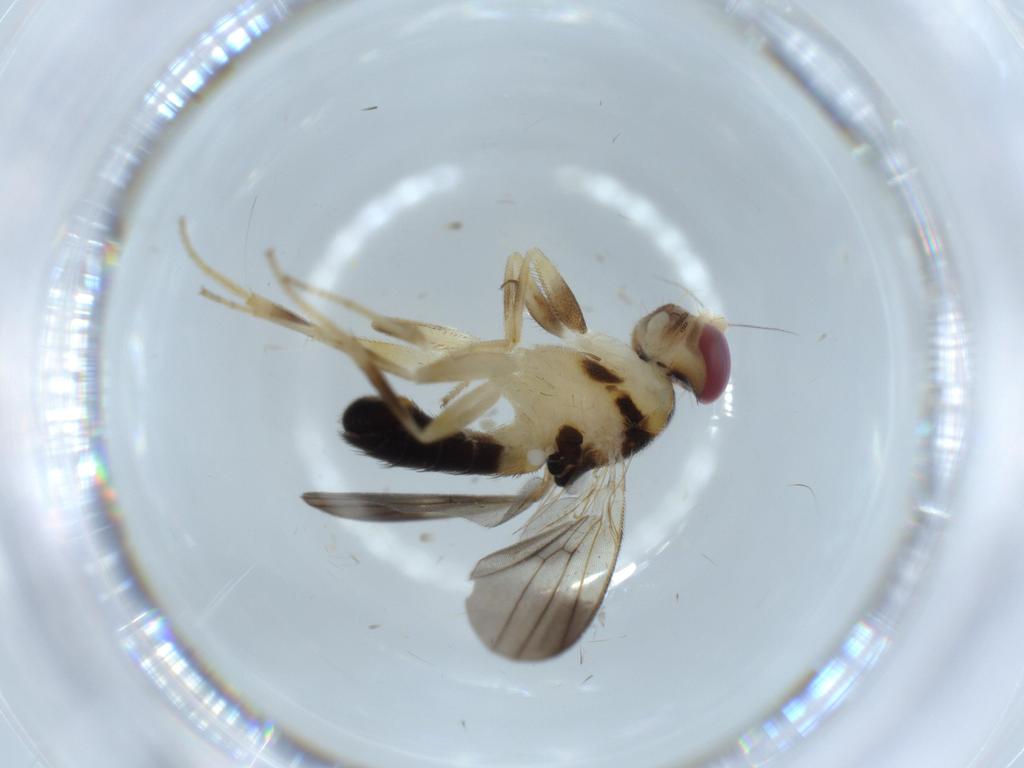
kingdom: Animalia
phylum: Arthropoda
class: Insecta
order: Diptera
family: Clusiidae
